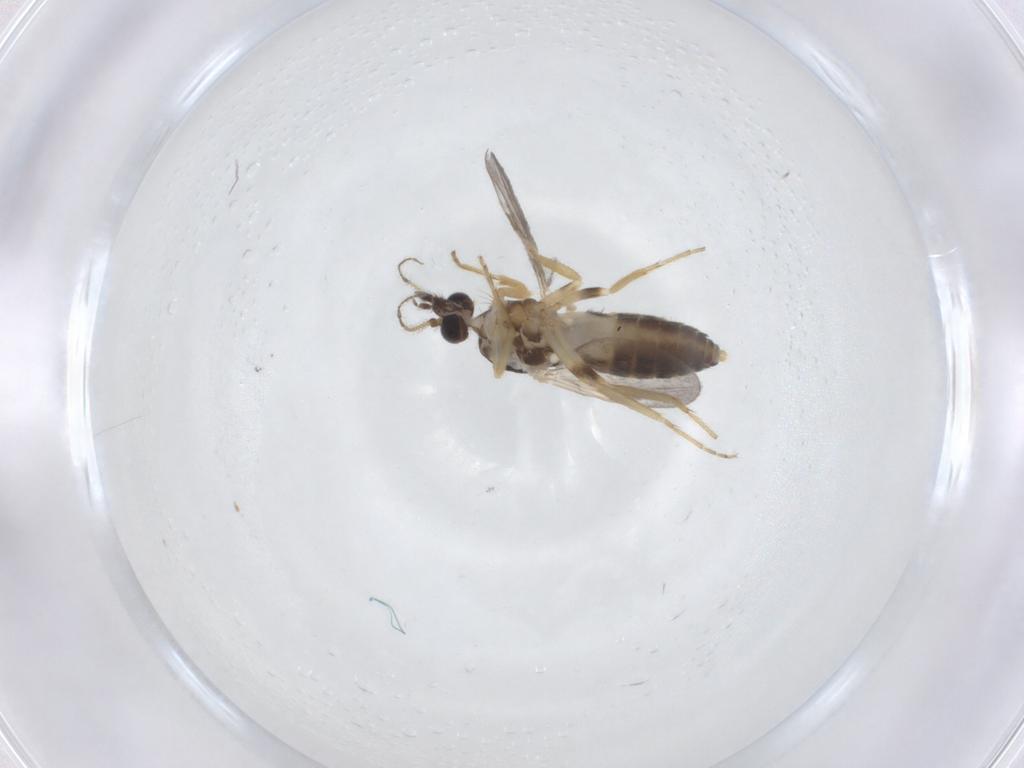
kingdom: Animalia
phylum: Arthropoda
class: Insecta
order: Diptera
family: Ceratopogonidae
